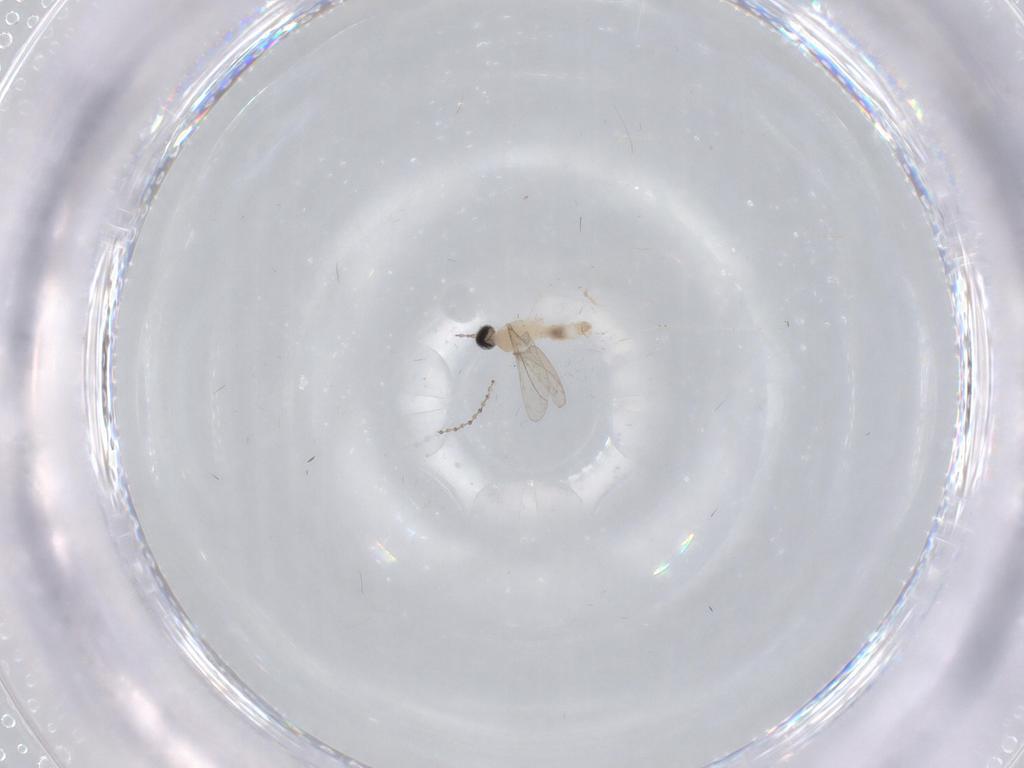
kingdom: Animalia
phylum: Arthropoda
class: Insecta
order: Diptera
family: Cecidomyiidae
